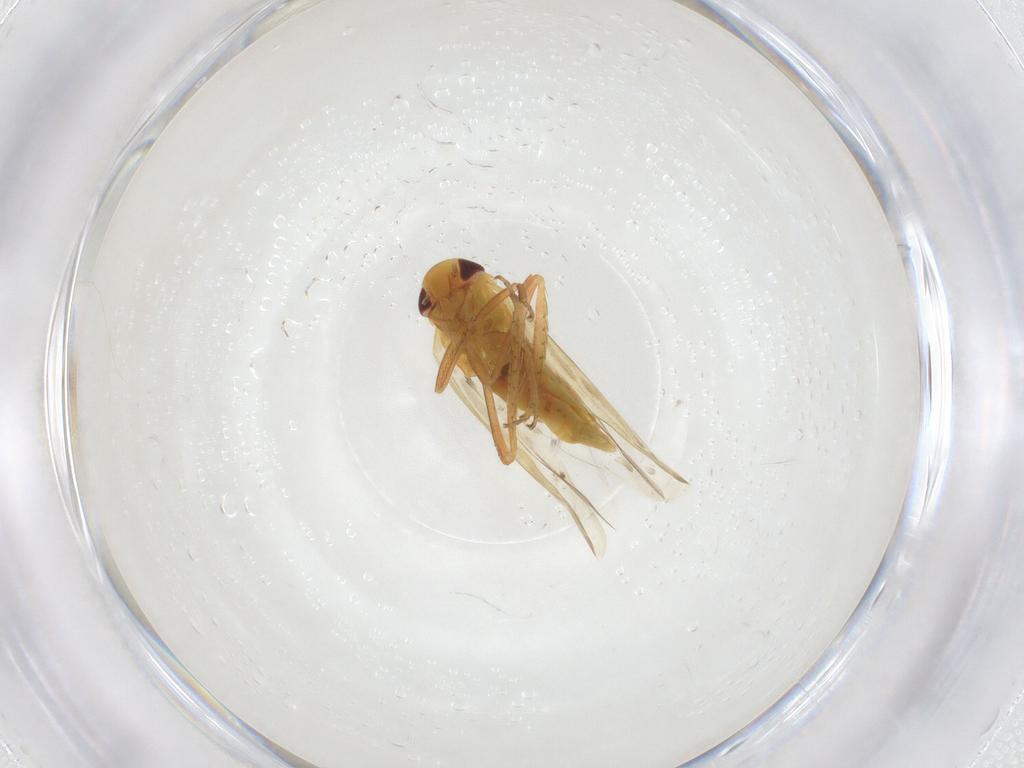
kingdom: Animalia
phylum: Arthropoda
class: Insecta
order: Hemiptera
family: Cicadellidae
